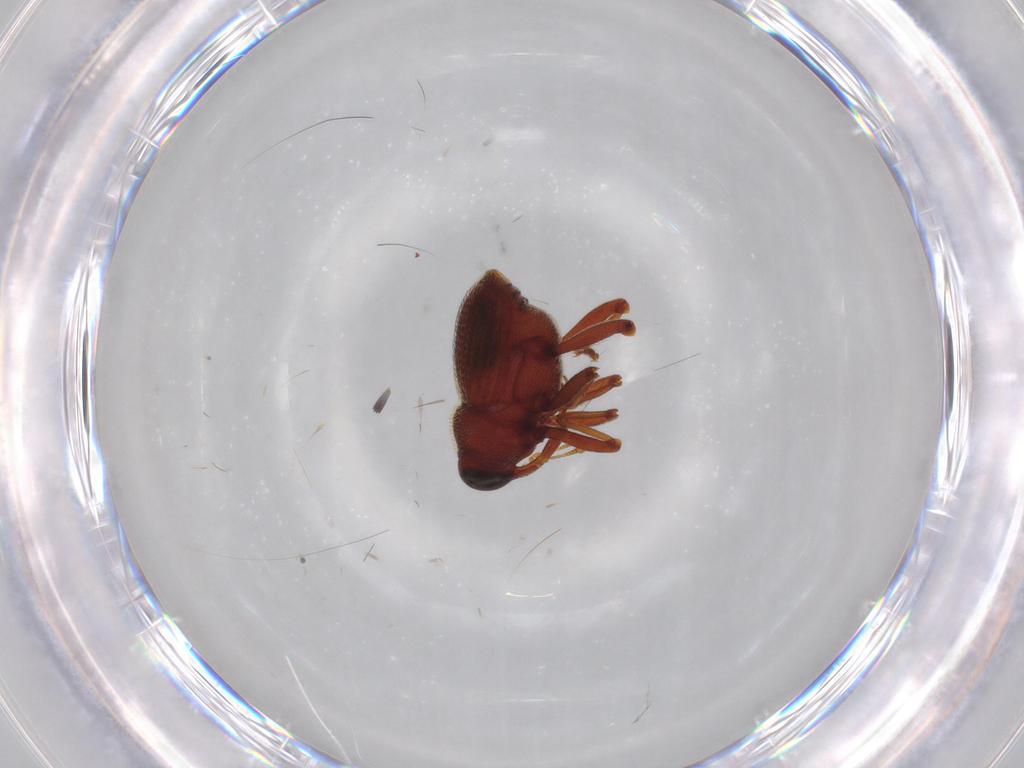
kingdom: Animalia
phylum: Arthropoda
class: Insecta
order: Coleoptera
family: Curculionidae
